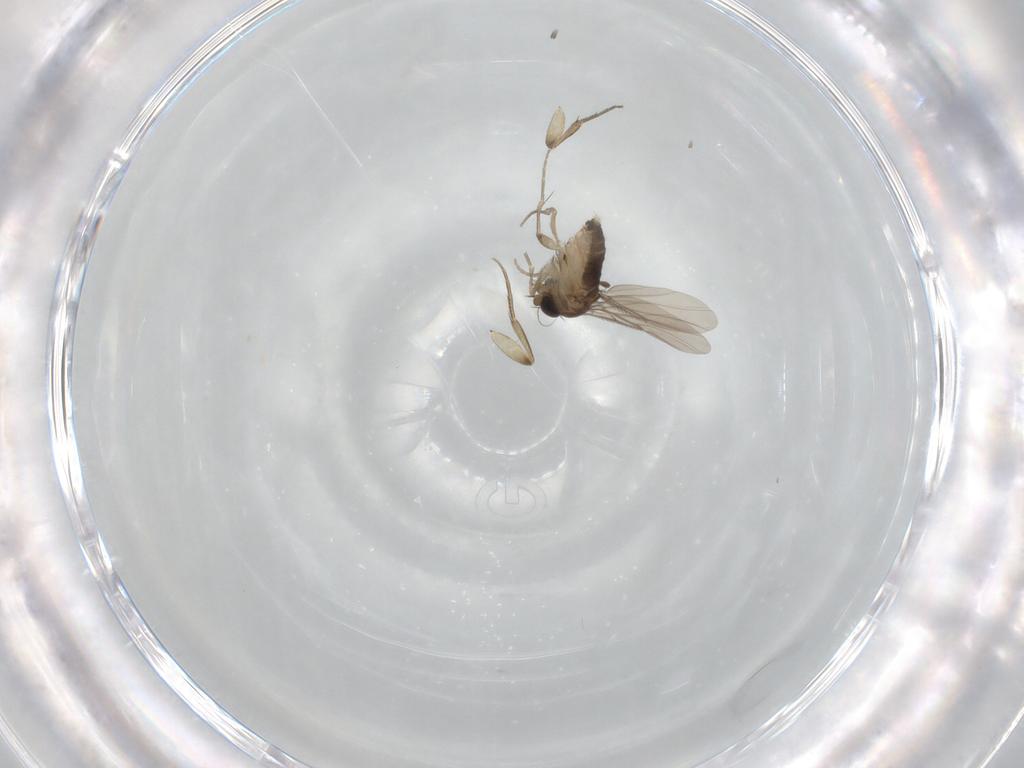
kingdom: Animalia
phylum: Arthropoda
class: Insecta
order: Diptera
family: Phoridae
